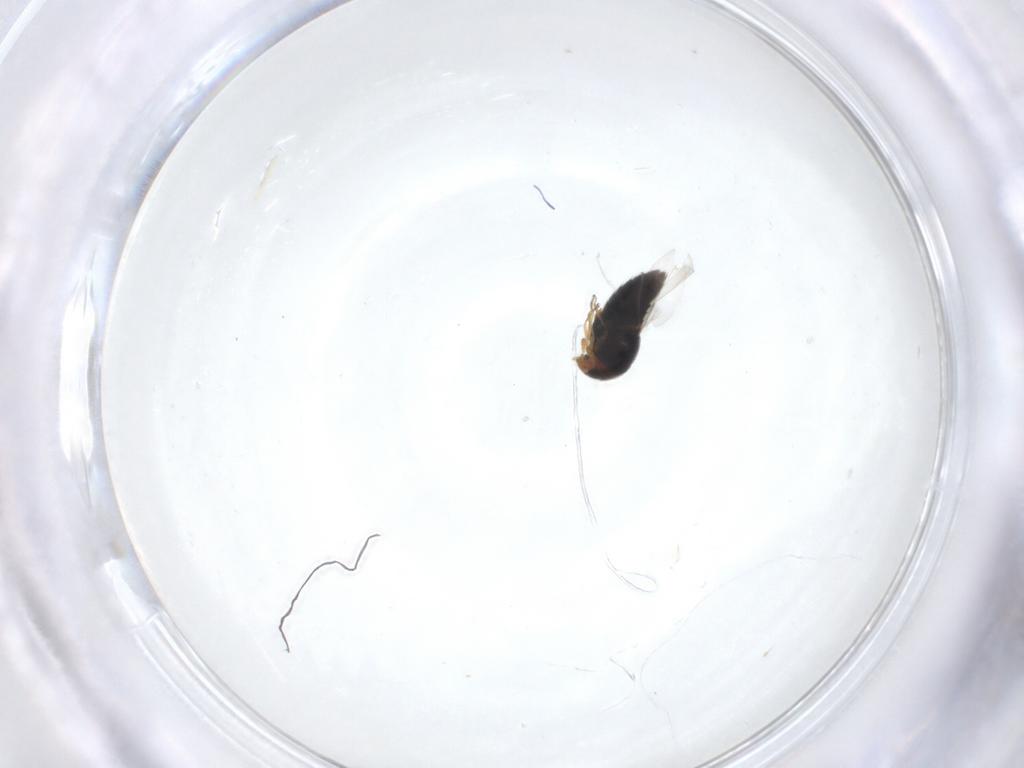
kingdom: Animalia
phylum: Arthropoda
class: Insecta
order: Coleoptera
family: Staphylinidae
